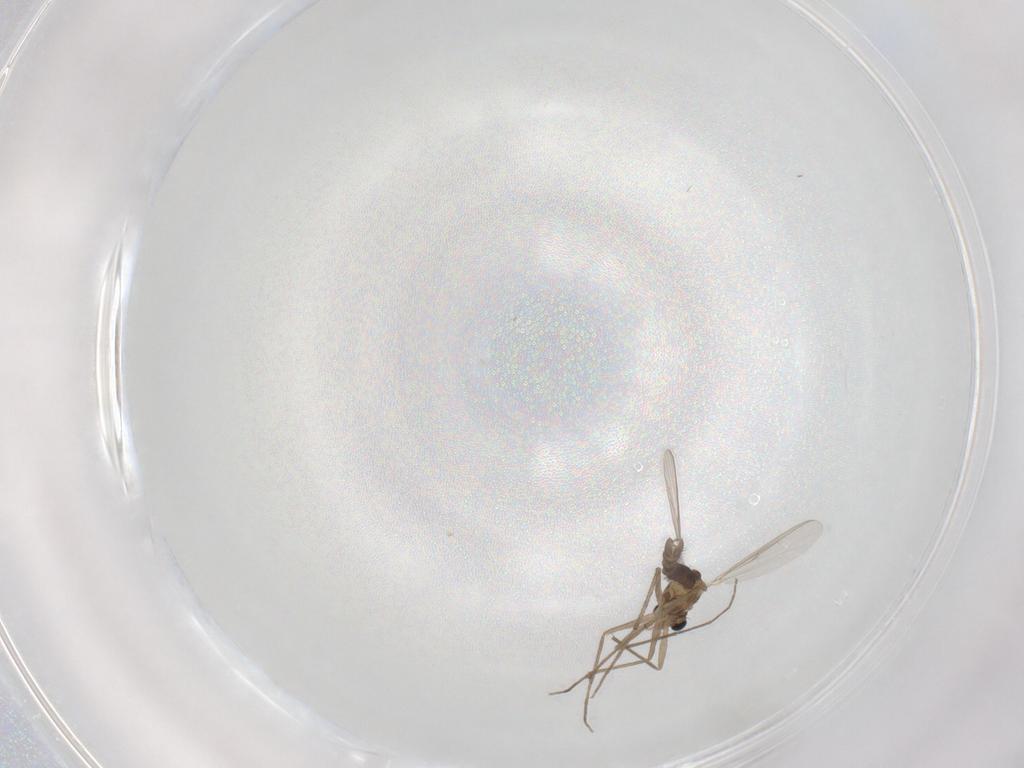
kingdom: Animalia
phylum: Arthropoda
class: Insecta
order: Diptera
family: Chironomidae
